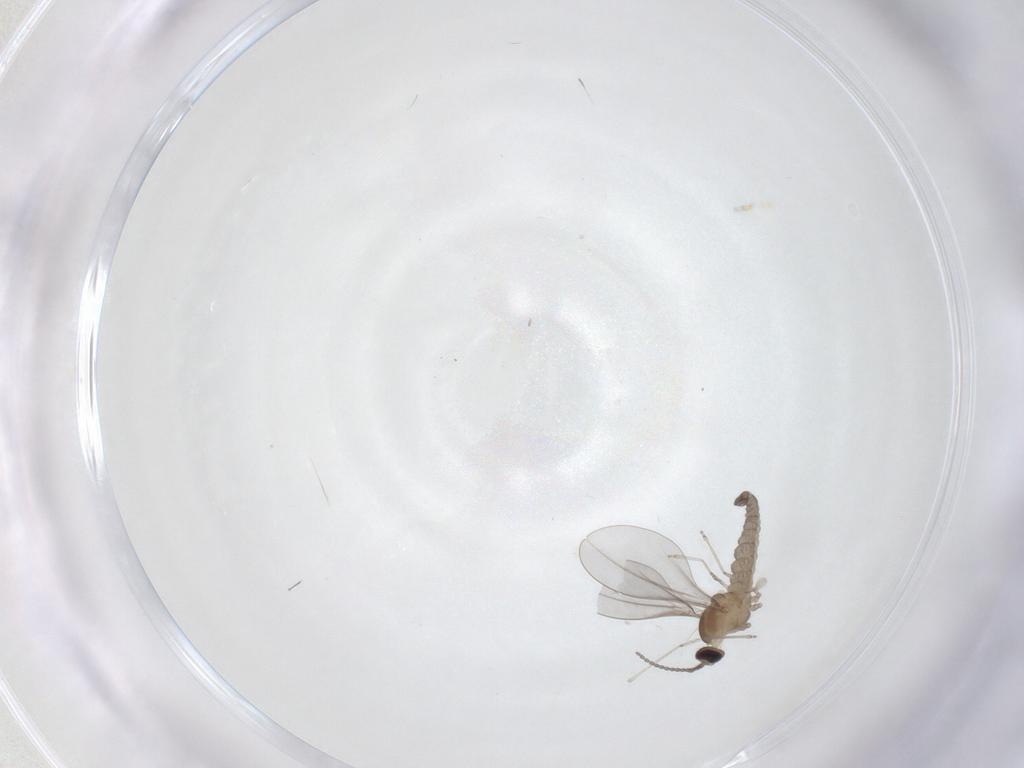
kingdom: Animalia
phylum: Arthropoda
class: Insecta
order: Diptera
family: Cecidomyiidae
